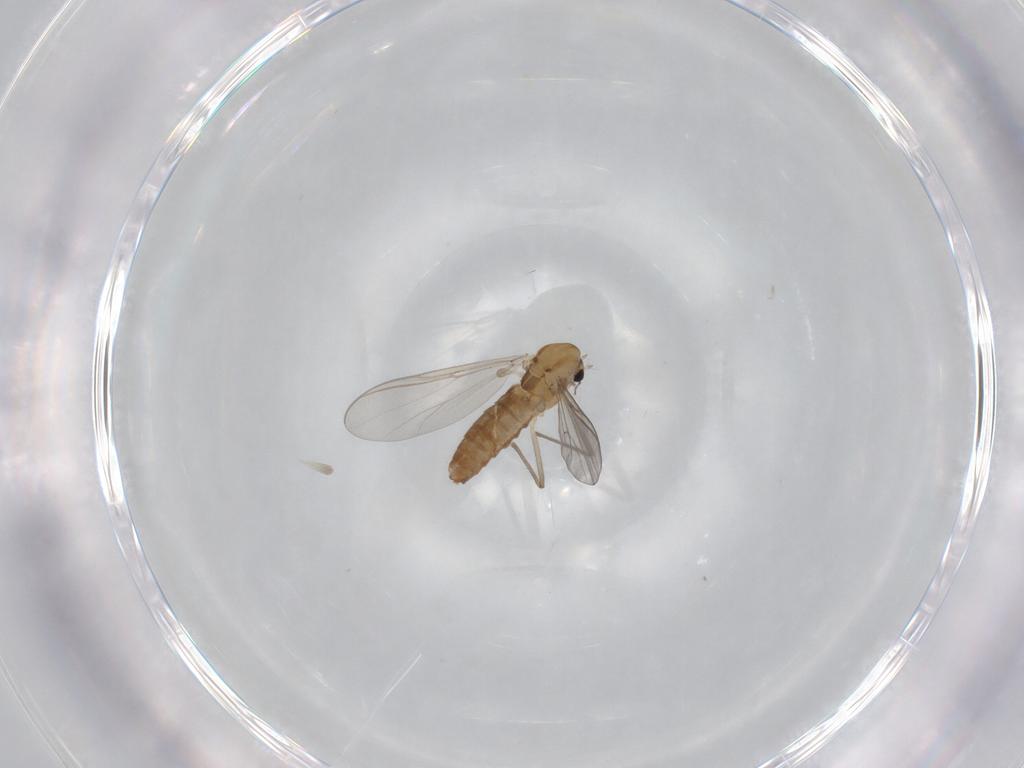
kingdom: Animalia
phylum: Arthropoda
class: Insecta
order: Diptera
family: Chironomidae
